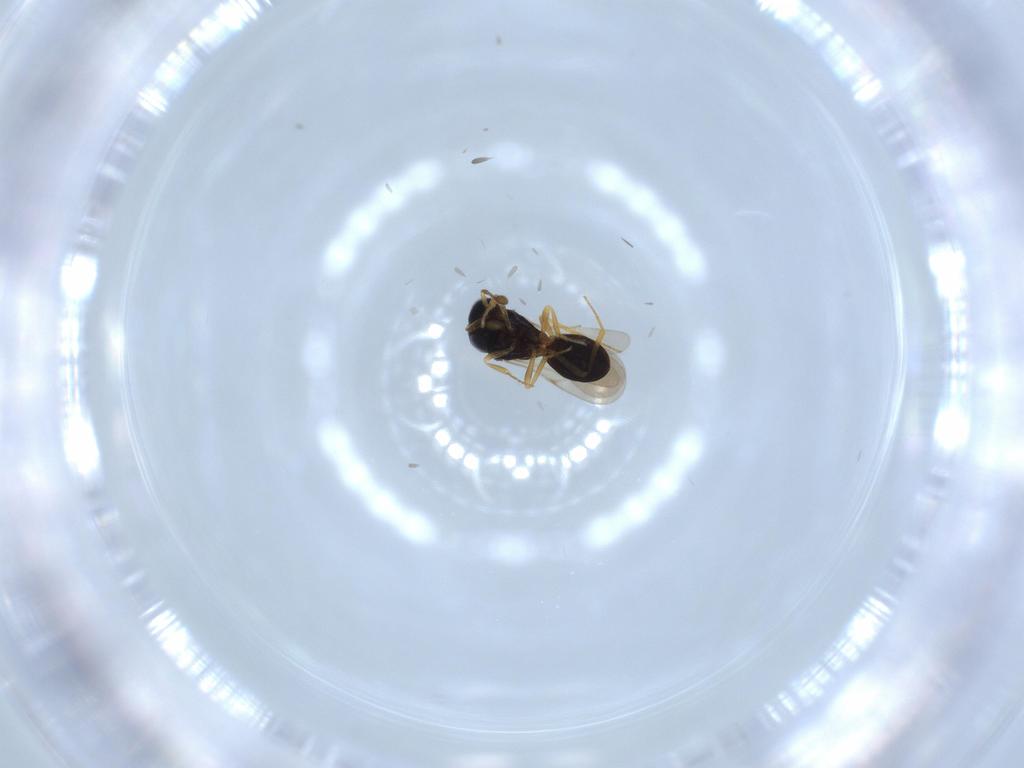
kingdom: Animalia
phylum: Arthropoda
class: Insecta
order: Hymenoptera
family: Scelionidae
